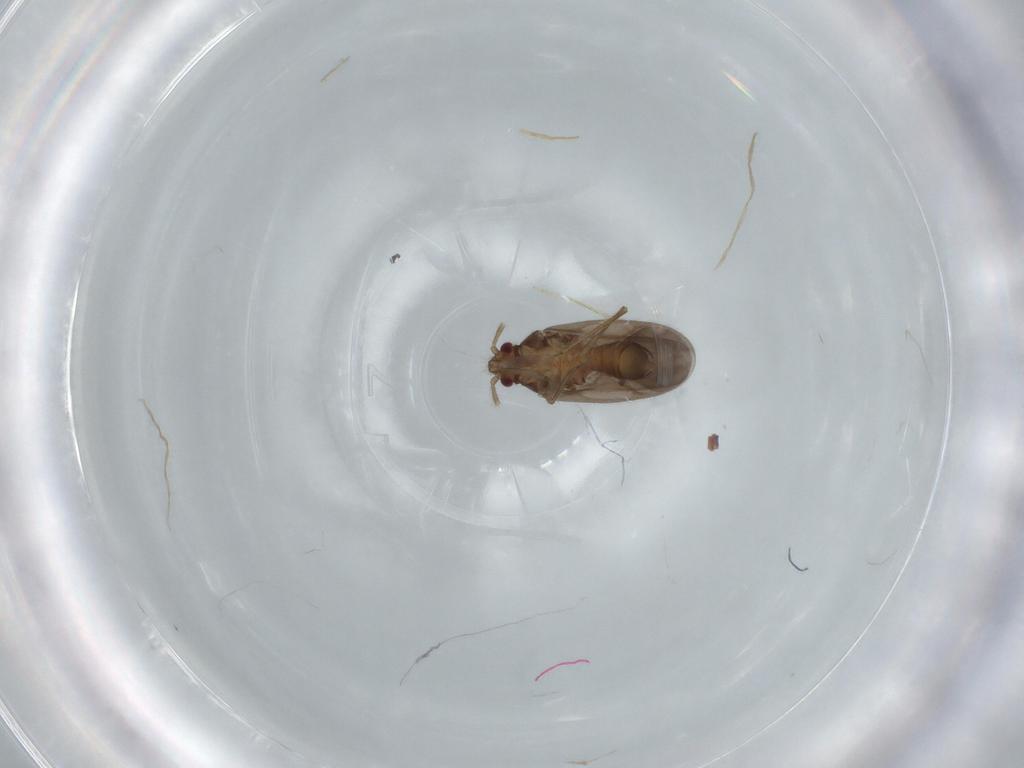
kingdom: Animalia
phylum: Arthropoda
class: Insecta
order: Hemiptera
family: Ceratocombidae
